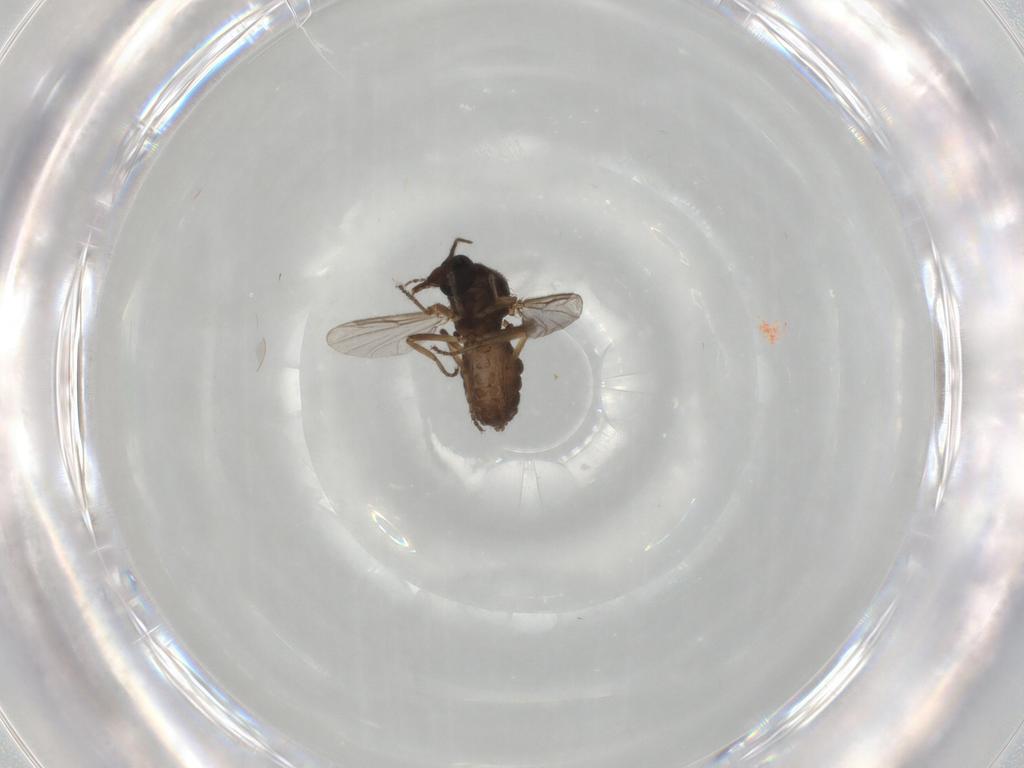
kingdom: Animalia
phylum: Arthropoda
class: Insecta
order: Diptera
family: Ceratopogonidae
